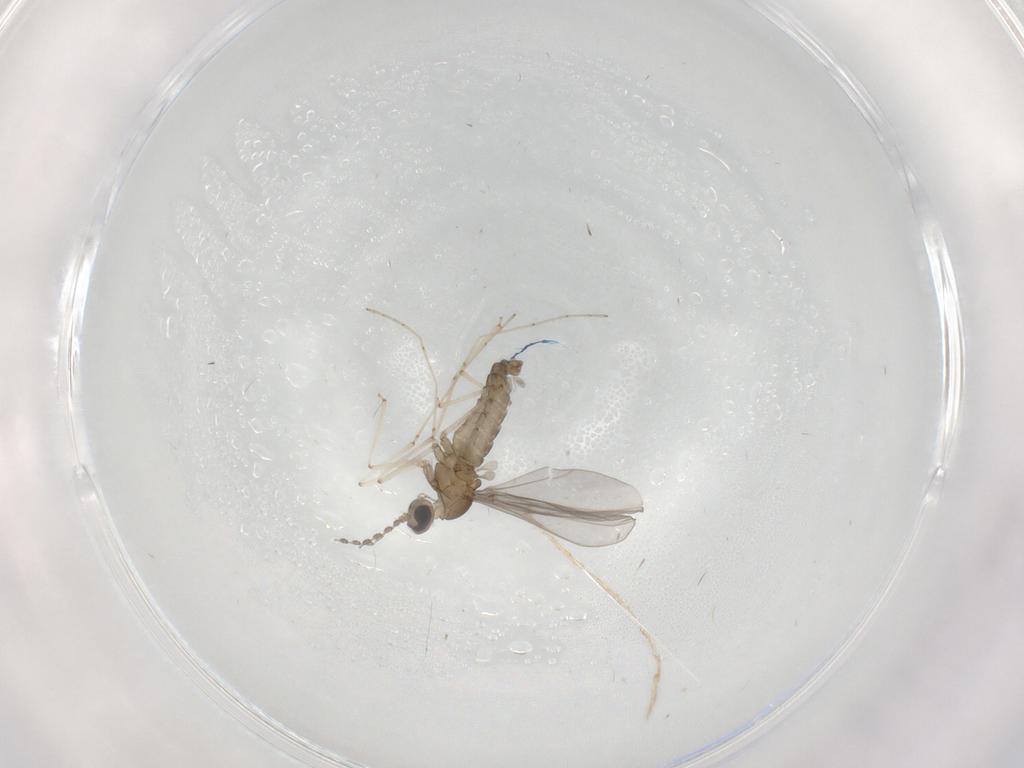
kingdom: Animalia
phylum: Arthropoda
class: Insecta
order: Diptera
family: Cecidomyiidae
